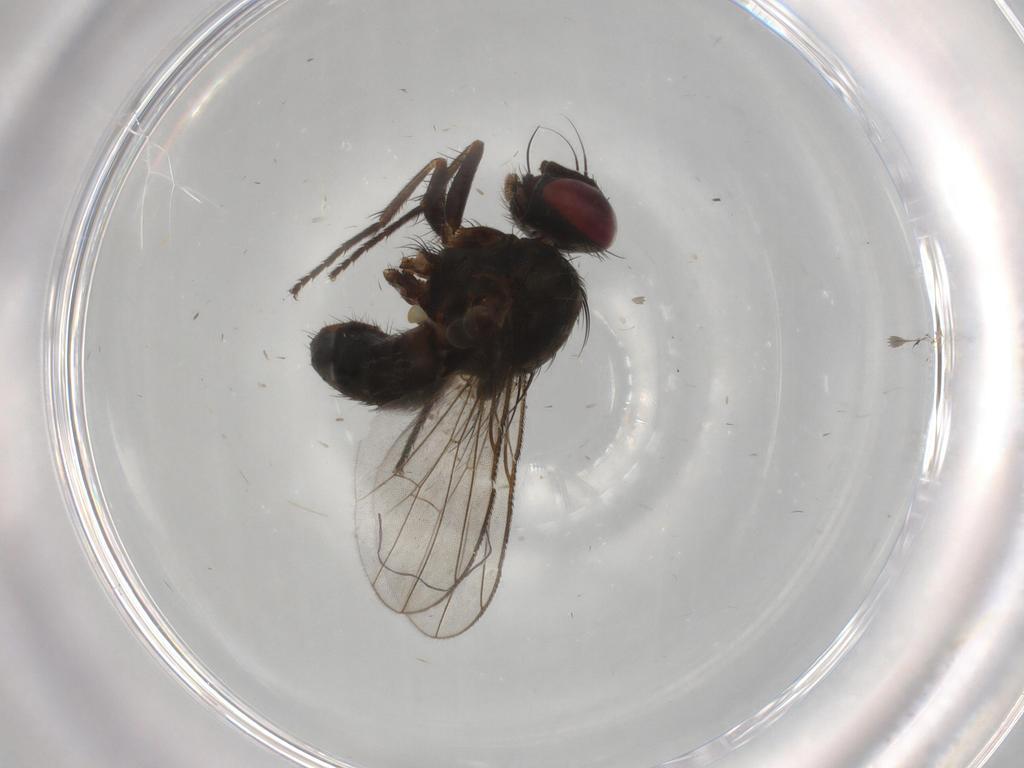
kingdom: Animalia
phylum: Arthropoda
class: Insecta
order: Diptera
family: Muscidae
